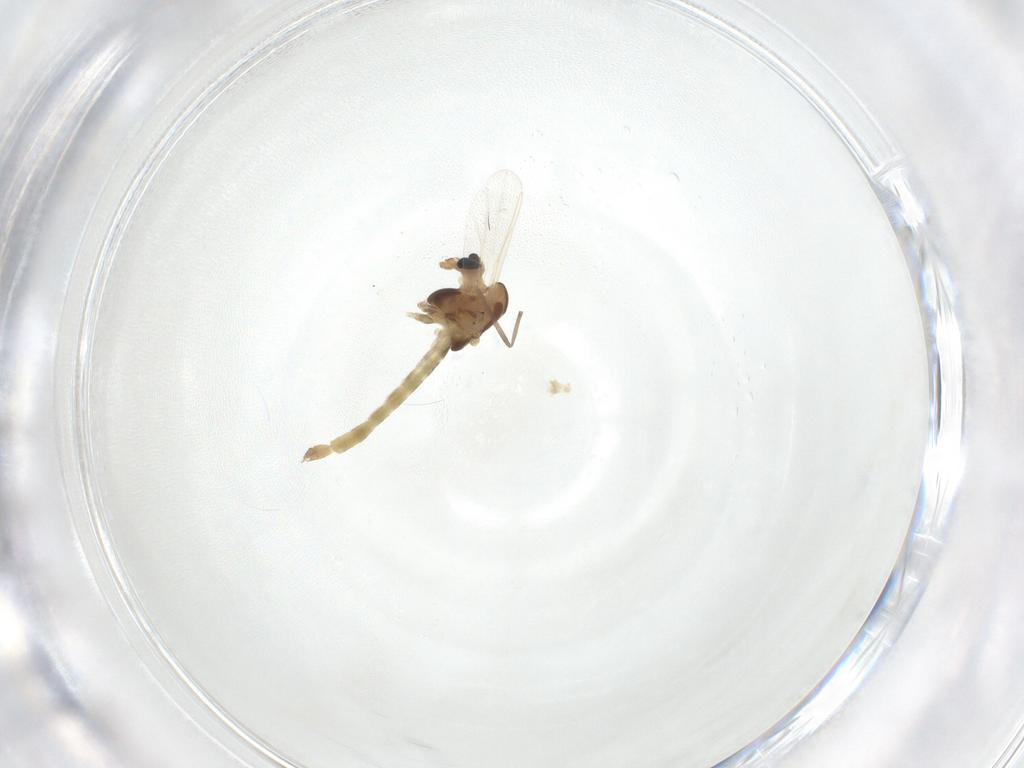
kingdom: Animalia
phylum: Arthropoda
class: Insecta
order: Diptera
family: Chironomidae
